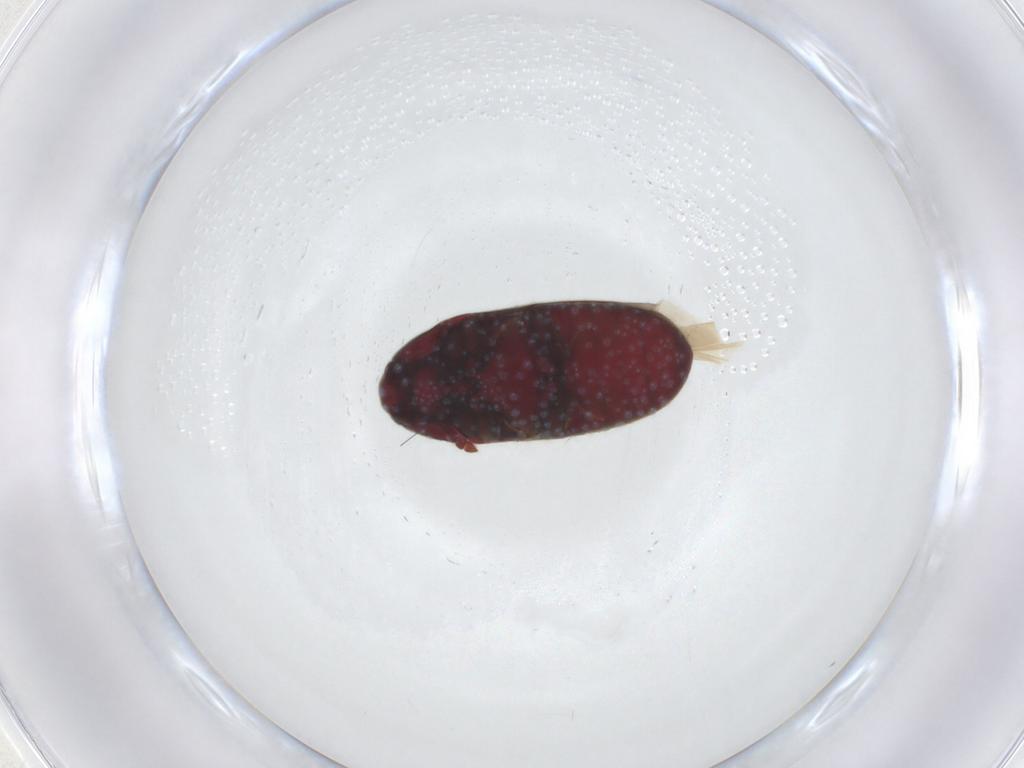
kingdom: Animalia
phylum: Arthropoda
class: Insecta
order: Coleoptera
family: Throscidae
